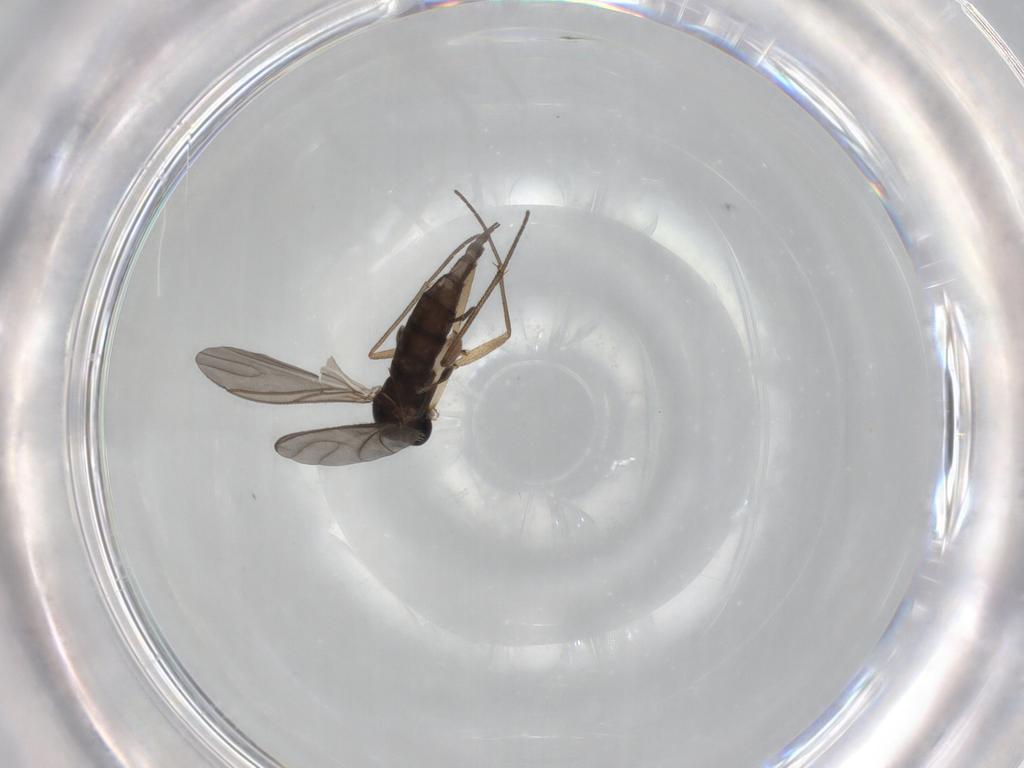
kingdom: Animalia
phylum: Arthropoda
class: Insecta
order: Diptera
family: Sciaridae
